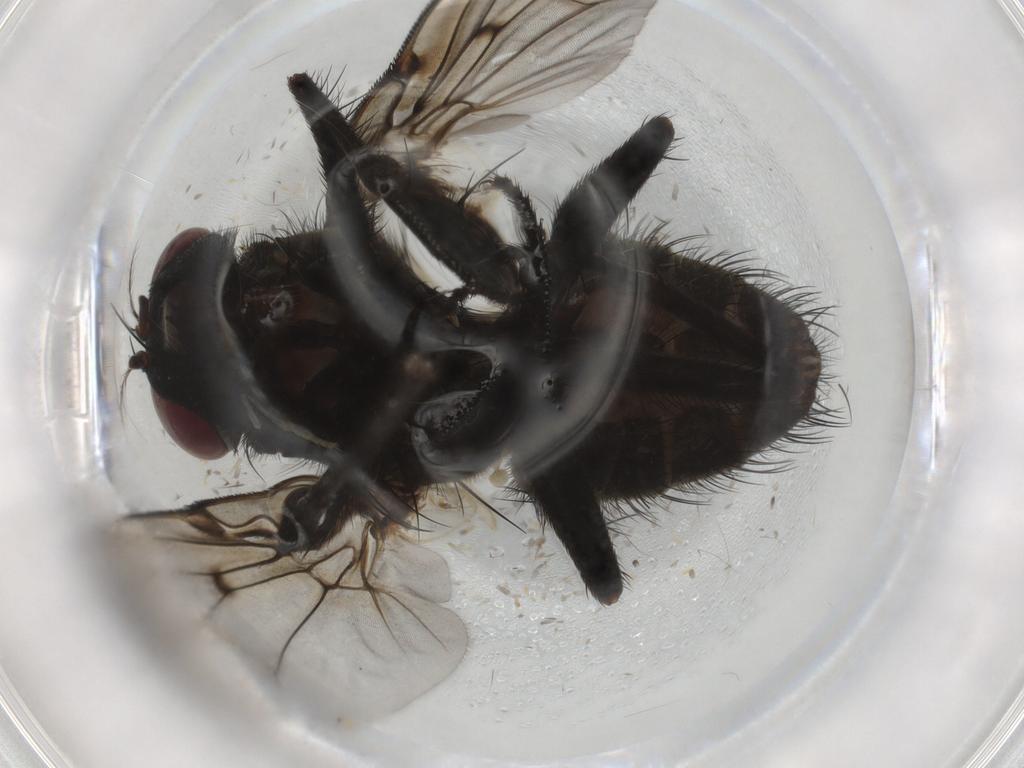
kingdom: Animalia
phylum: Arthropoda
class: Insecta
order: Diptera
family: Muscidae
